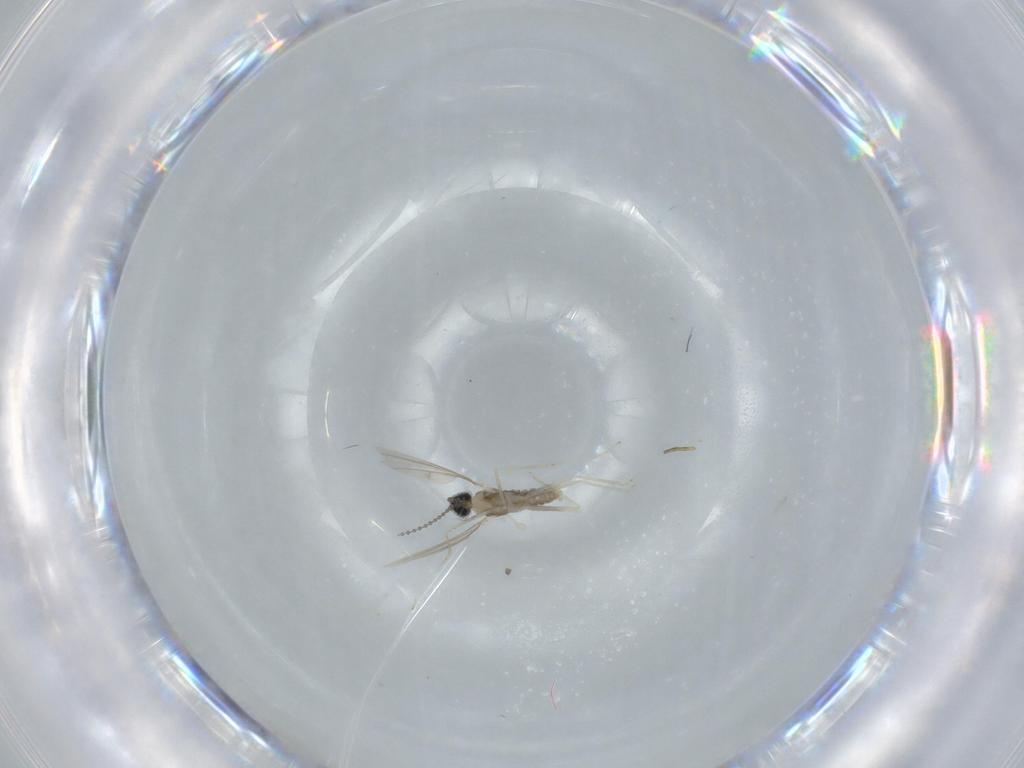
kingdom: Animalia
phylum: Arthropoda
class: Insecta
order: Diptera
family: Cecidomyiidae
